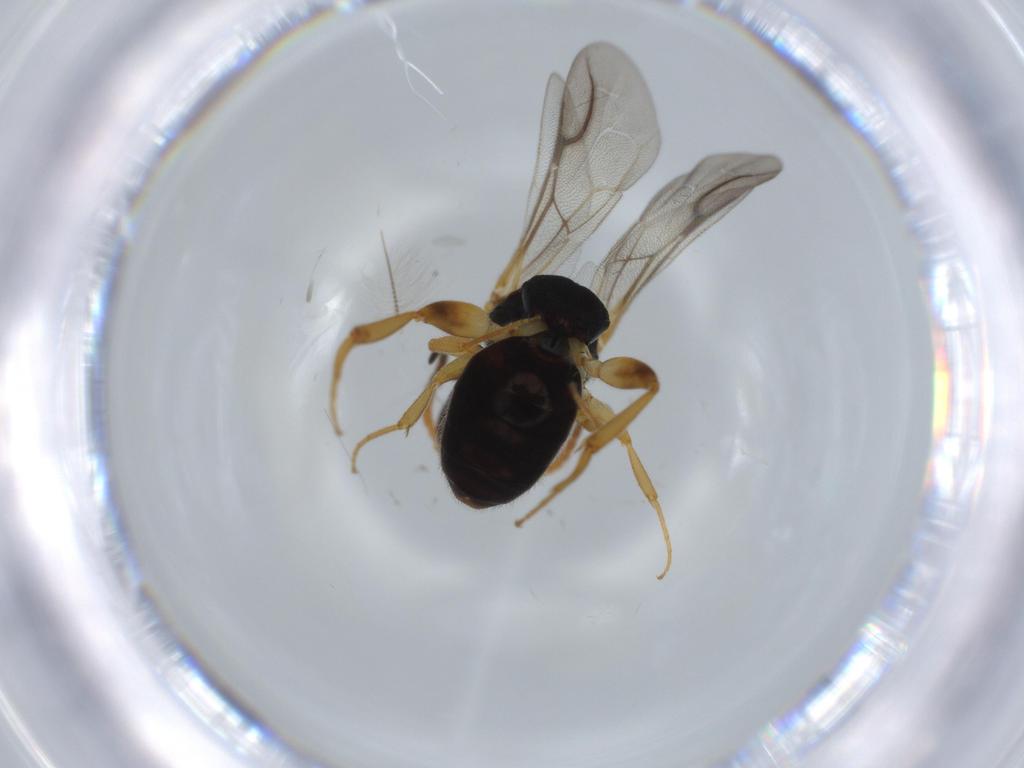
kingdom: Animalia
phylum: Arthropoda
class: Insecta
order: Hymenoptera
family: Bethylidae
